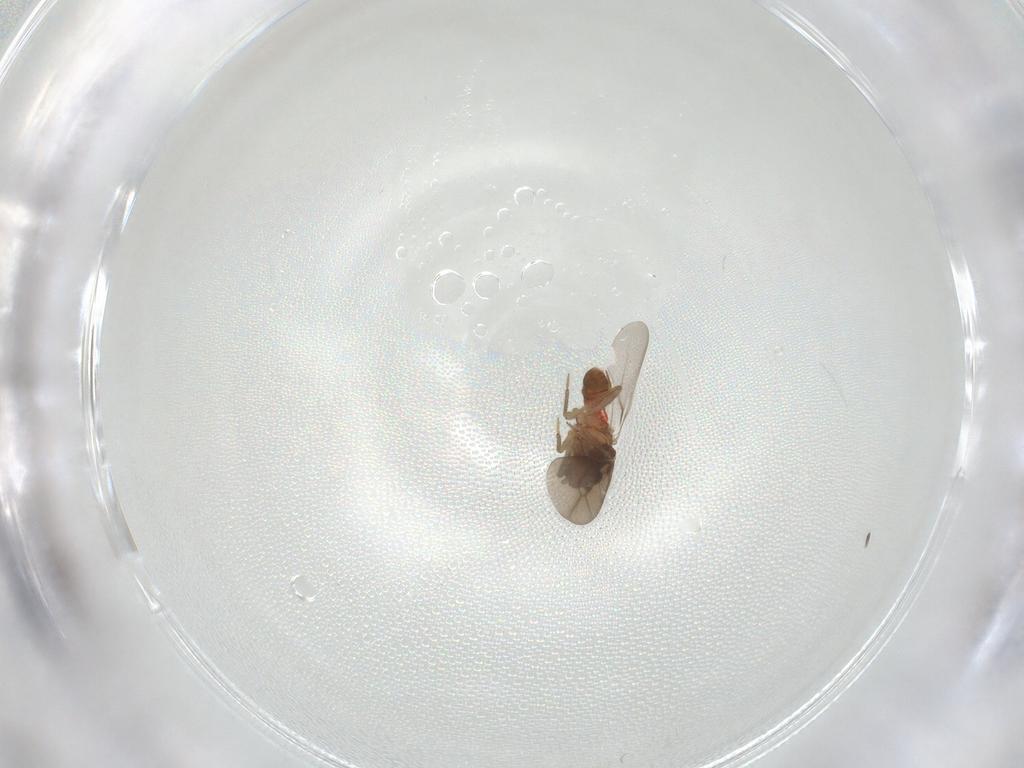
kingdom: Animalia
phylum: Arthropoda
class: Insecta
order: Hemiptera
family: Ceratocombidae
